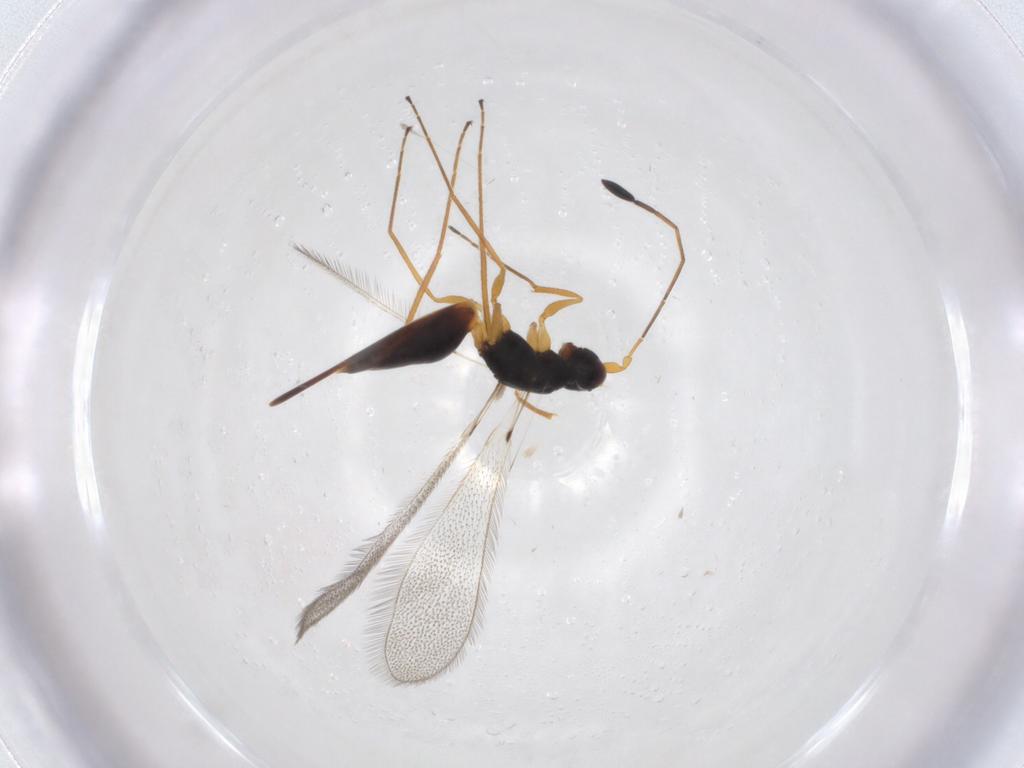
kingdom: Animalia
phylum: Arthropoda
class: Insecta
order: Hymenoptera
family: Mymaridae
